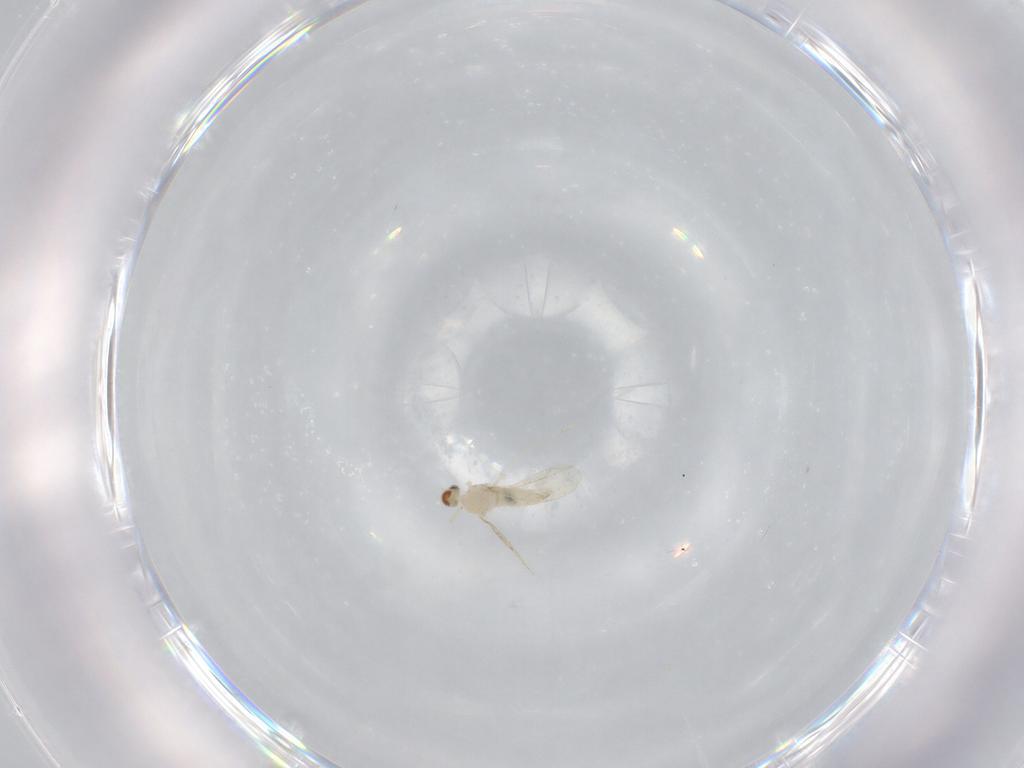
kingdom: Animalia
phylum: Arthropoda
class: Insecta
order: Diptera
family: Cecidomyiidae
